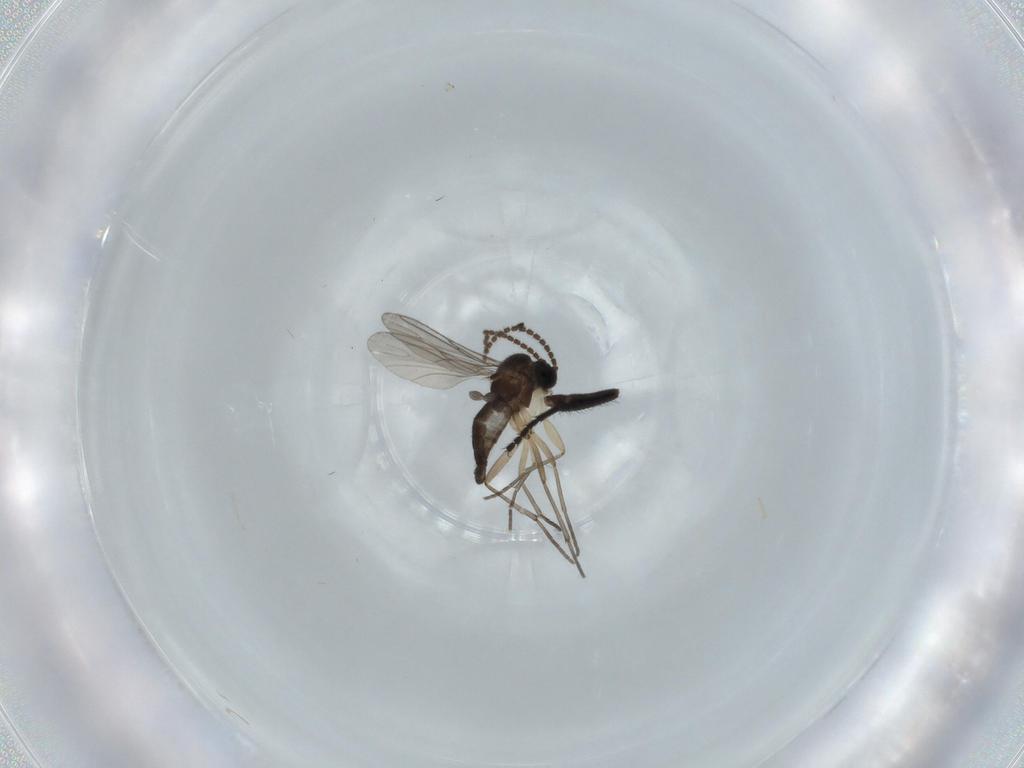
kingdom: Animalia
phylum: Arthropoda
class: Insecta
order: Diptera
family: Sciaridae
